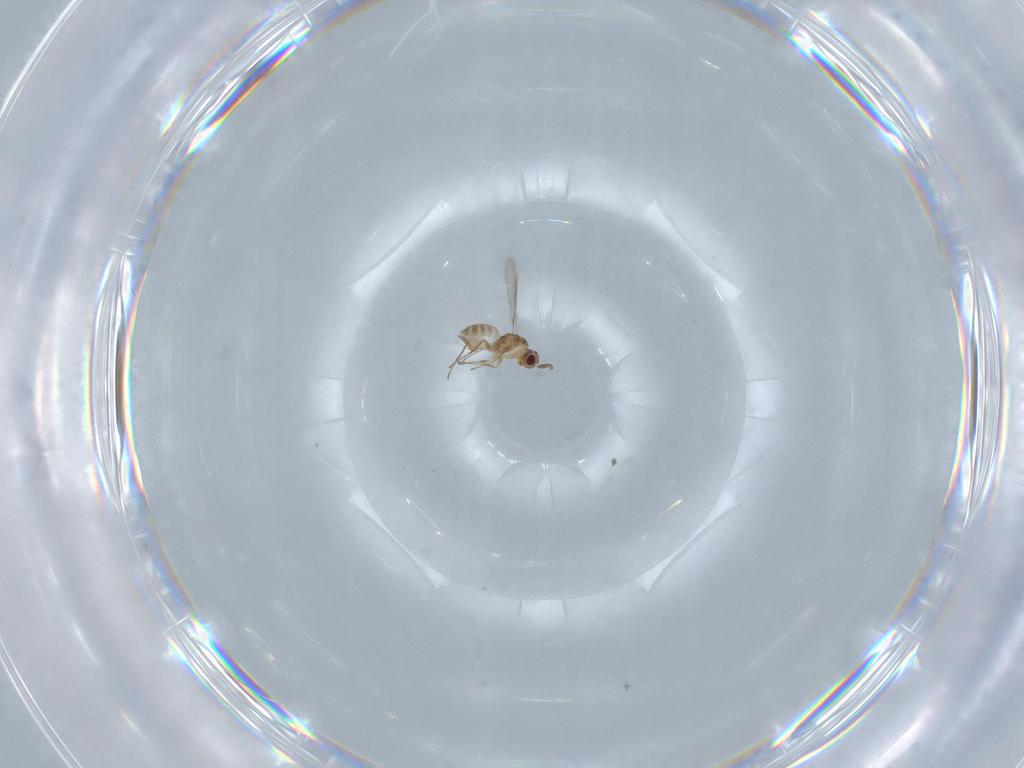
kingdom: Animalia
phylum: Arthropoda
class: Insecta
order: Hymenoptera
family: Mymaridae
